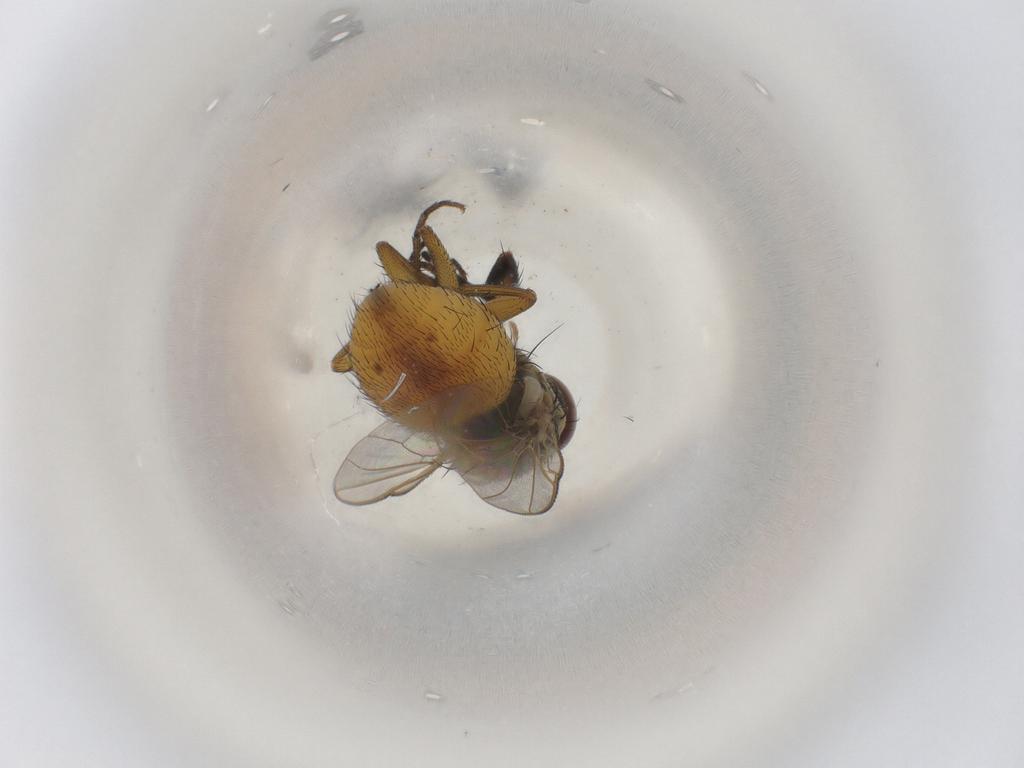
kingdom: Animalia
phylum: Arthropoda
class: Insecta
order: Diptera
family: Muscidae
